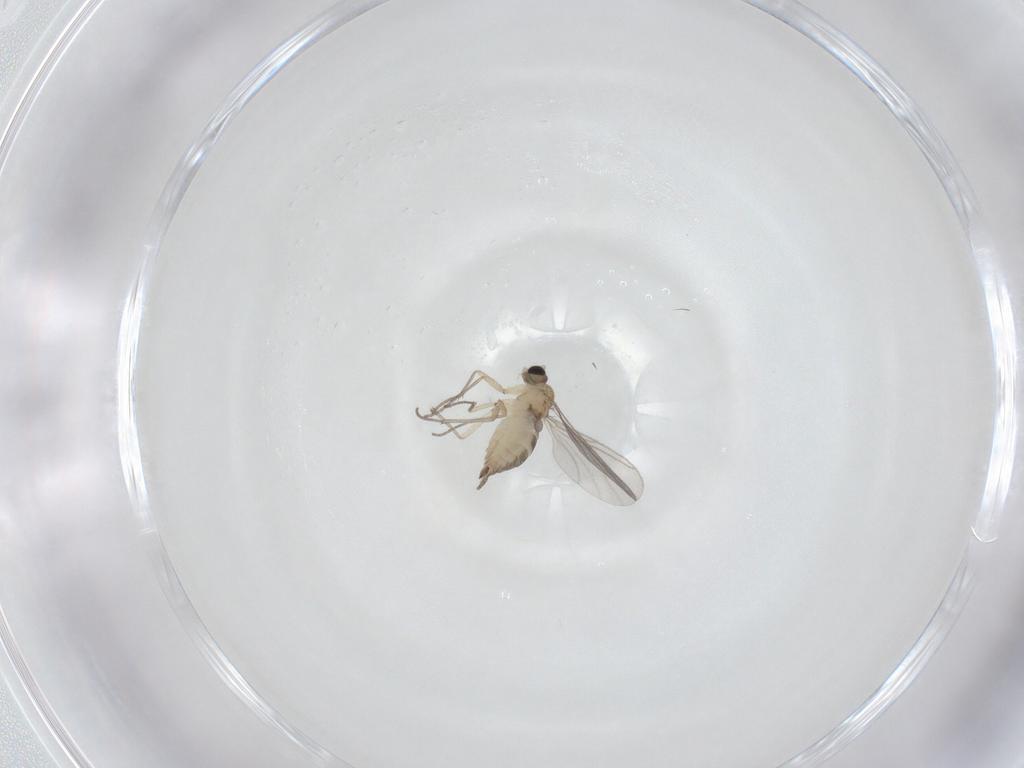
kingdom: Animalia
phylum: Arthropoda
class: Insecta
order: Diptera
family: Sciaridae
